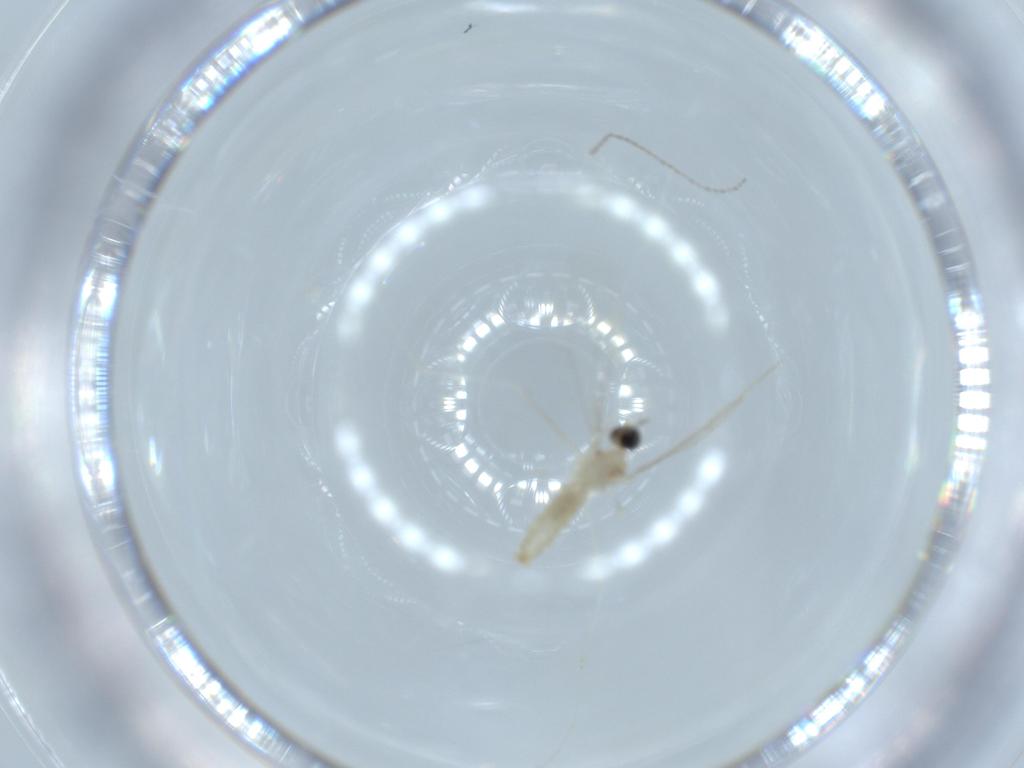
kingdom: Animalia
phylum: Arthropoda
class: Insecta
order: Diptera
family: Cecidomyiidae
